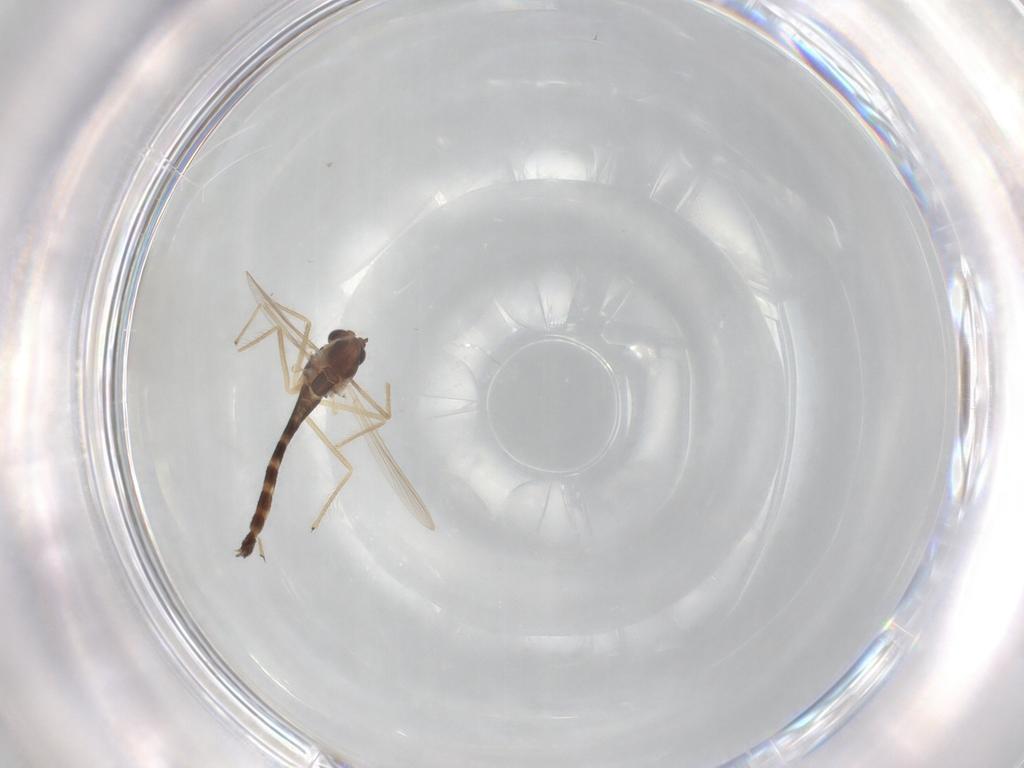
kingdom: Animalia
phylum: Arthropoda
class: Insecta
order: Diptera
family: Chironomidae
